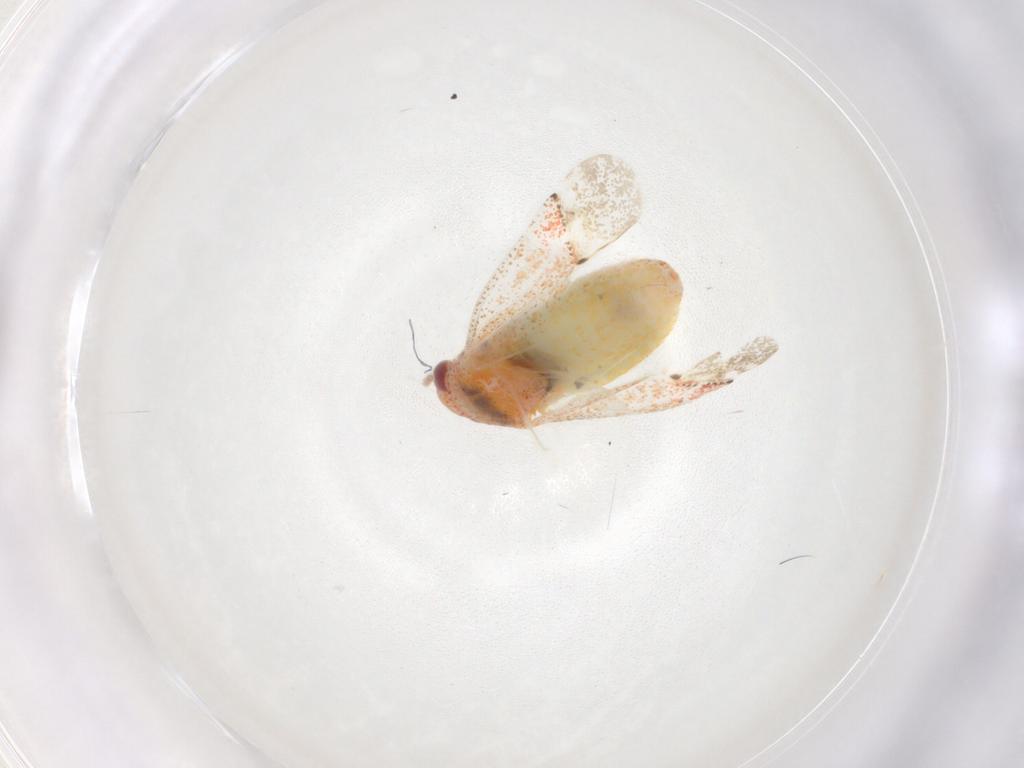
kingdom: Animalia
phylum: Arthropoda
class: Insecta
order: Hemiptera
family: Miridae
